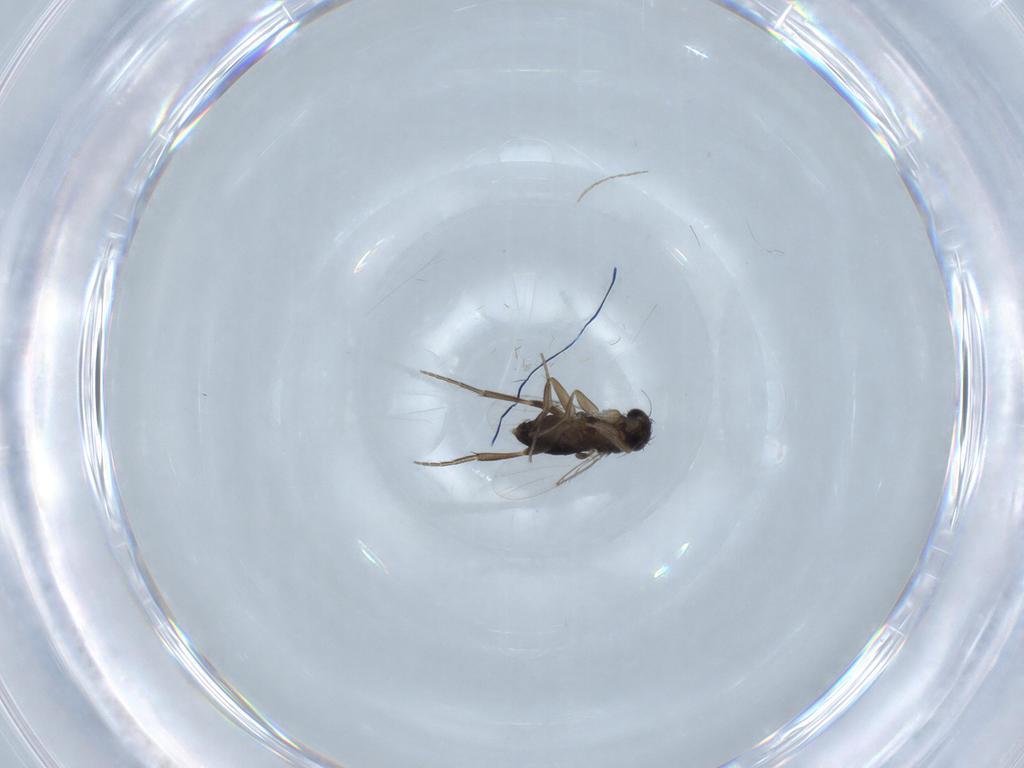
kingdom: Animalia
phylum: Arthropoda
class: Insecta
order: Diptera
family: Phoridae
